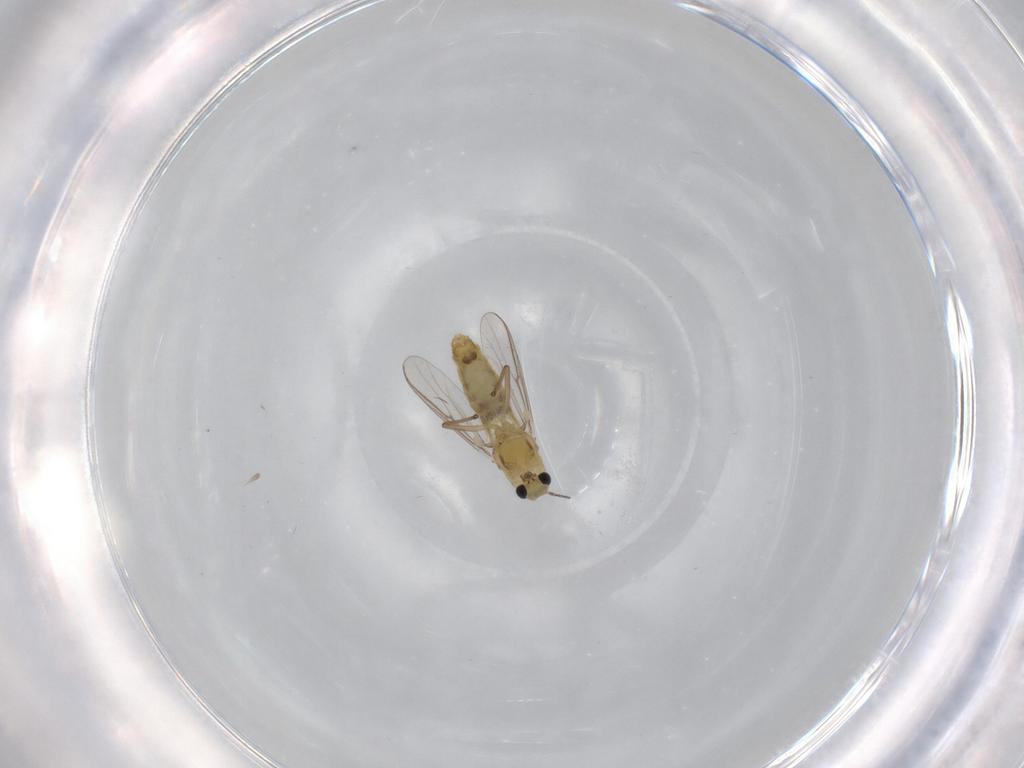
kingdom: Animalia
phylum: Arthropoda
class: Insecta
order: Diptera
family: Chironomidae
